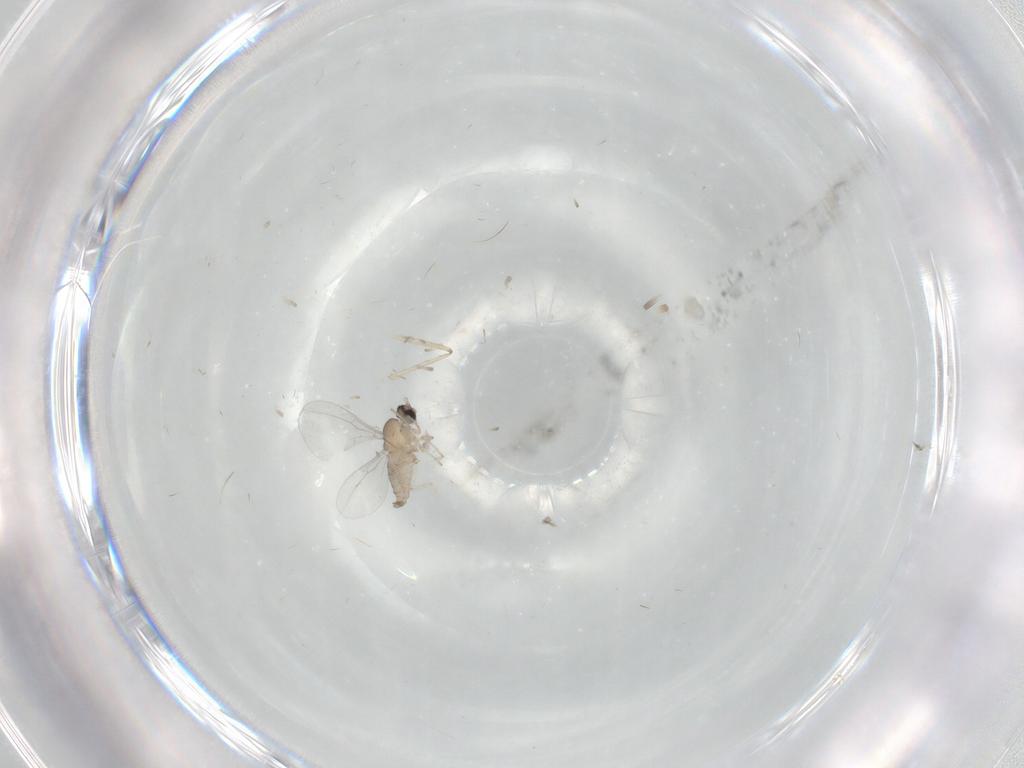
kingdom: Animalia
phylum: Arthropoda
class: Insecta
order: Diptera
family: Cecidomyiidae
